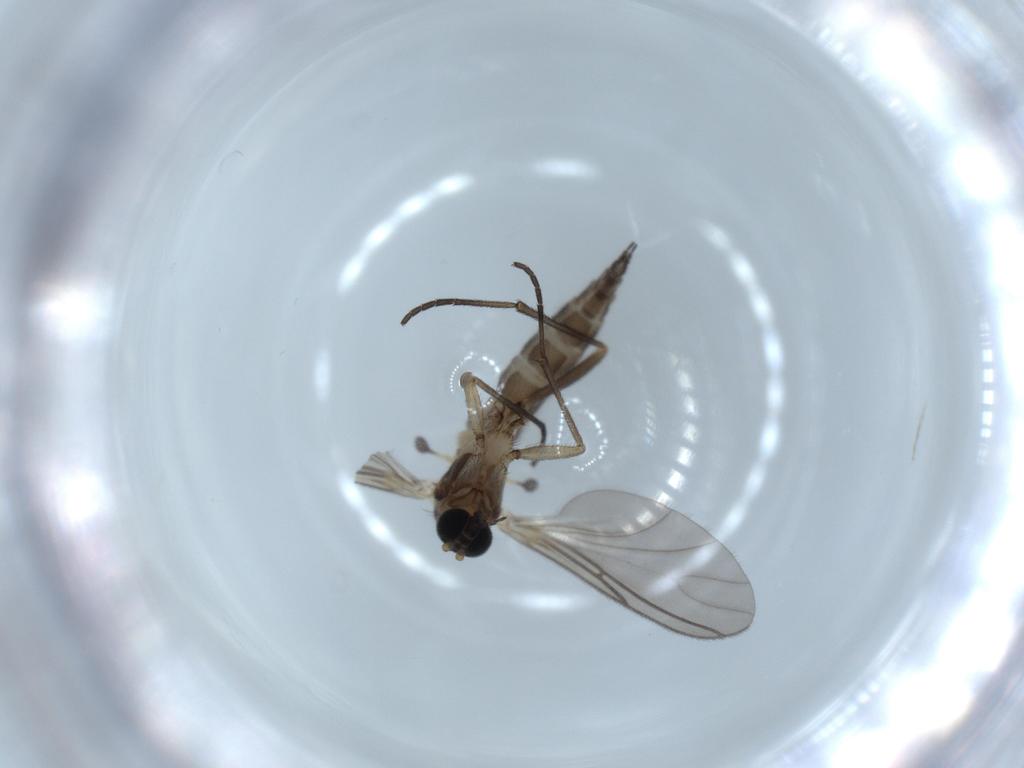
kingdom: Animalia
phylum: Arthropoda
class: Insecta
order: Diptera
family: Sciaridae
